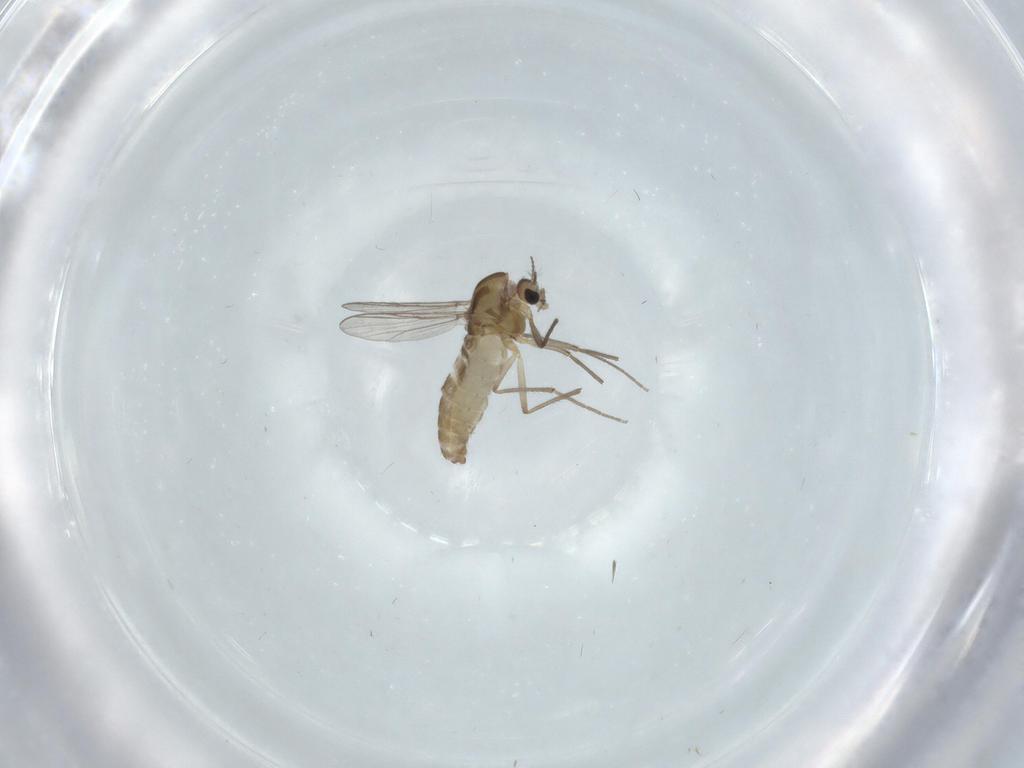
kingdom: Animalia
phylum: Arthropoda
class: Insecta
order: Diptera
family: Chironomidae
